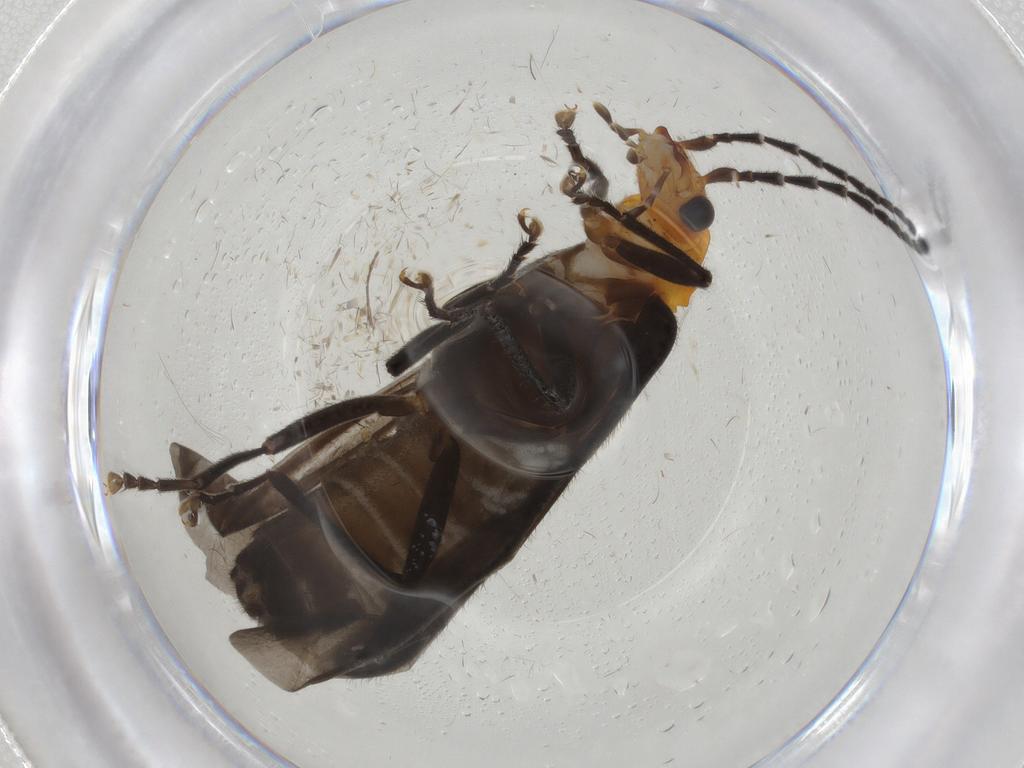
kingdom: Animalia
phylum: Arthropoda
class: Insecta
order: Coleoptera
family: Cantharidae
